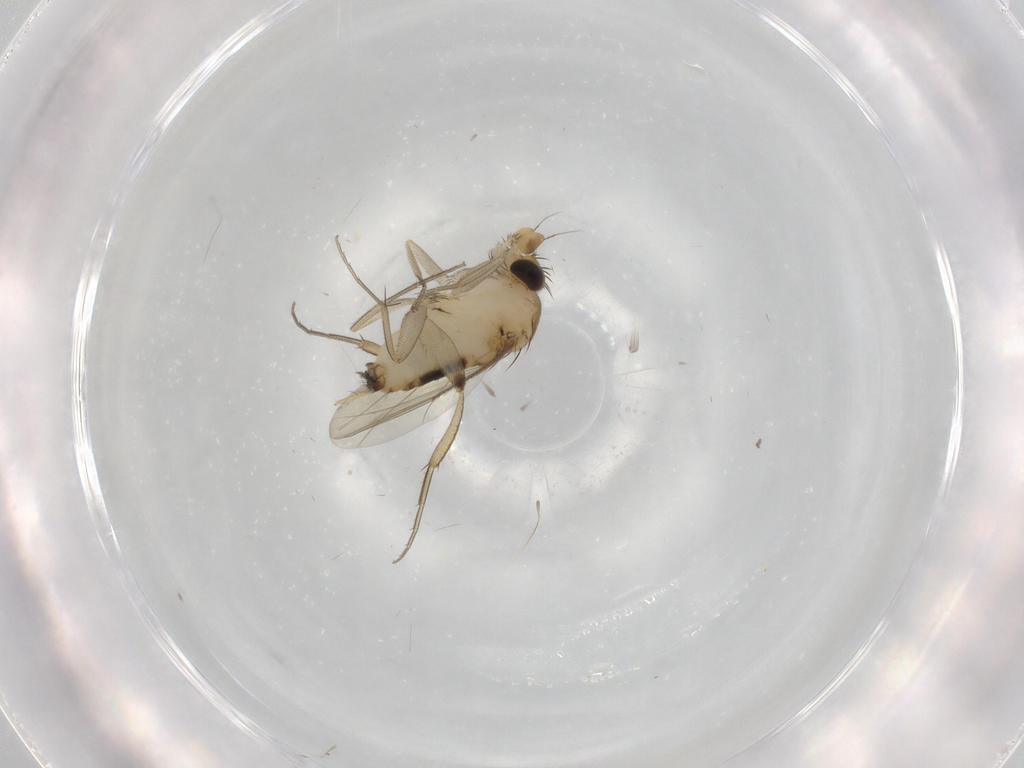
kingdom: Animalia
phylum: Arthropoda
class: Insecta
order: Diptera
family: Phoridae
